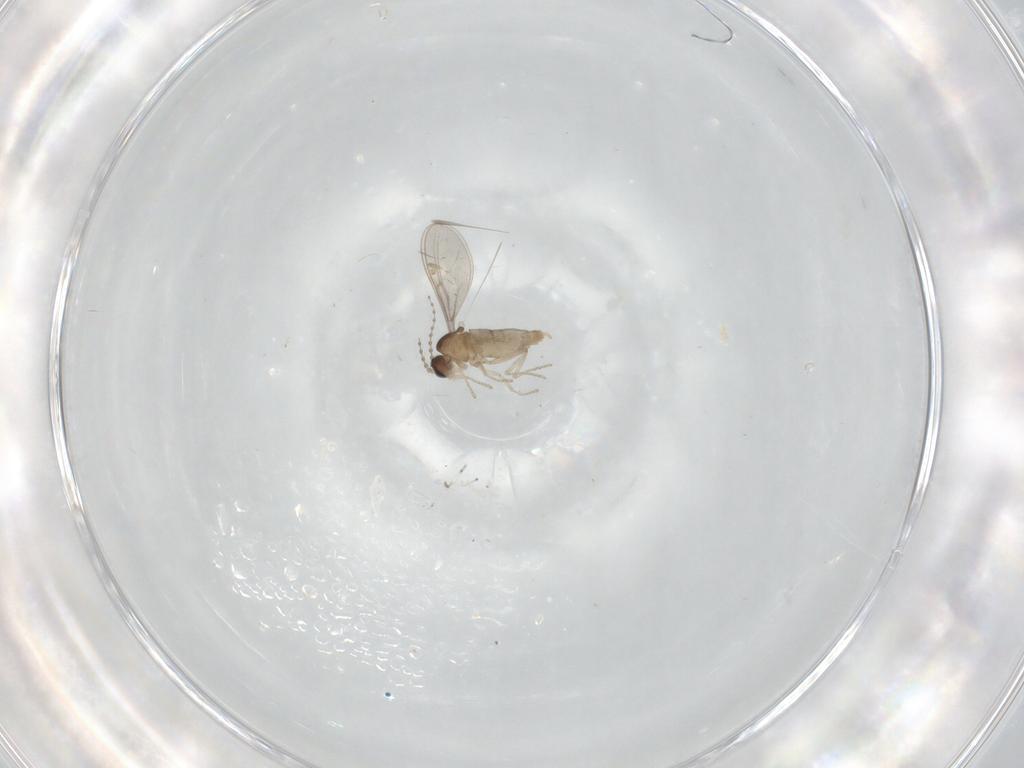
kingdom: Animalia
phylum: Arthropoda
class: Insecta
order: Diptera
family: Cecidomyiidae
